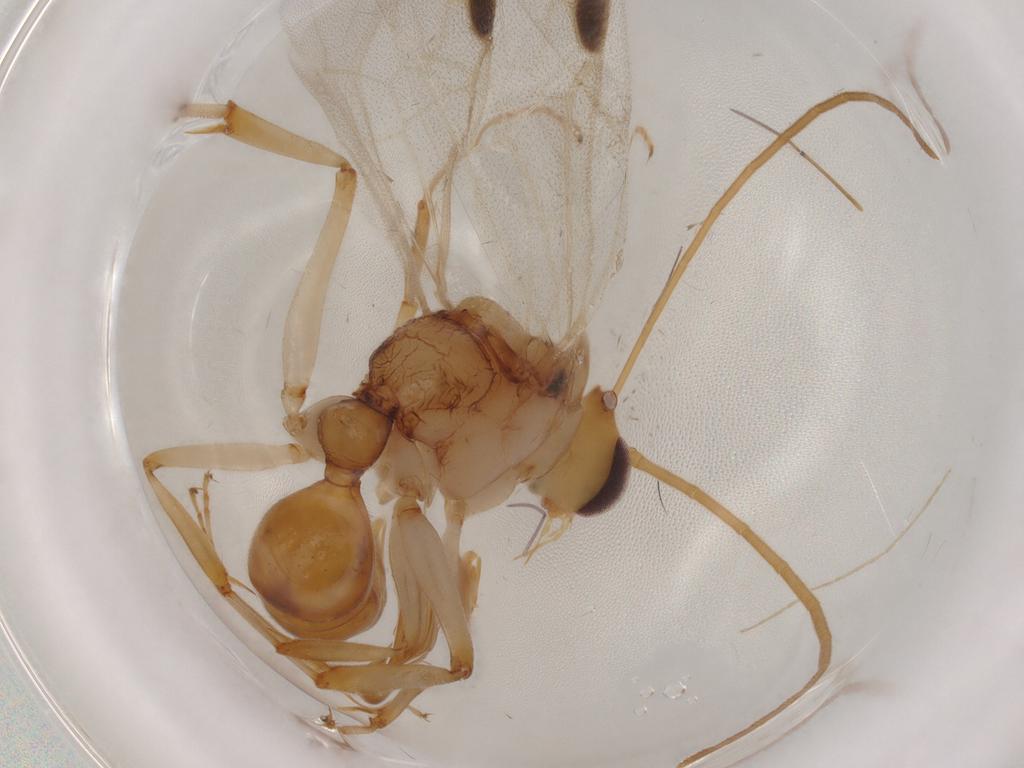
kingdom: Animalia
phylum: Arthropoda
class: Insecta
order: Hymenoptera
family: Formicidae
